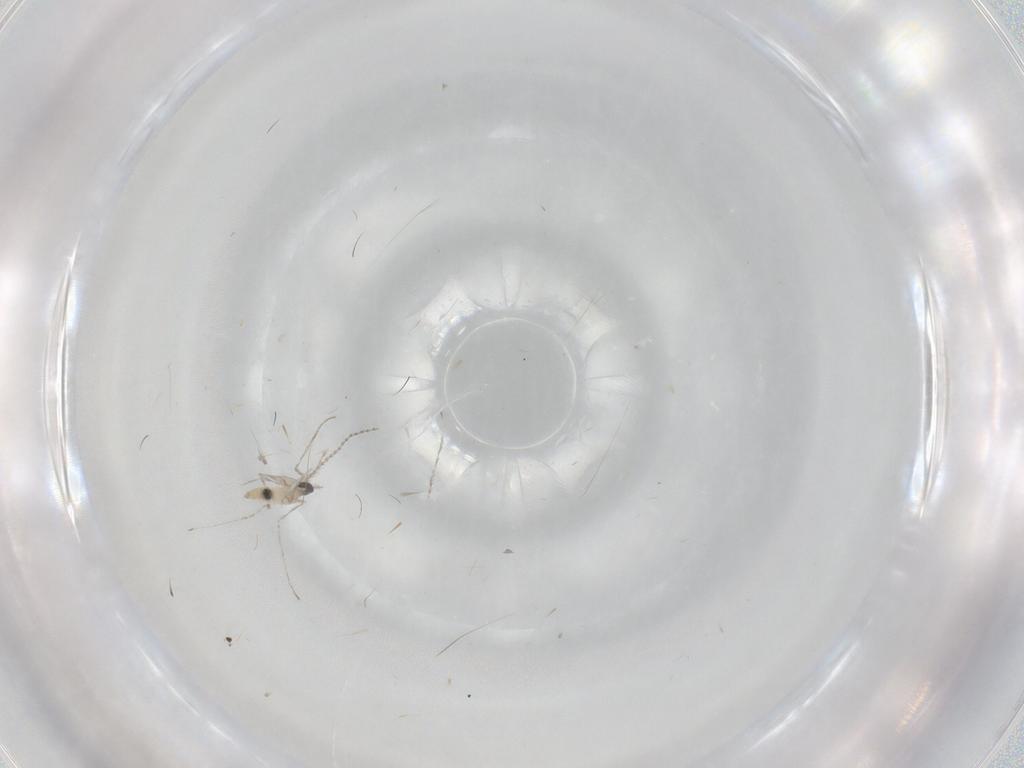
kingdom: Animalia
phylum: Arthropoda
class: Insecta
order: Diptera
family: Cecidomyiidae
